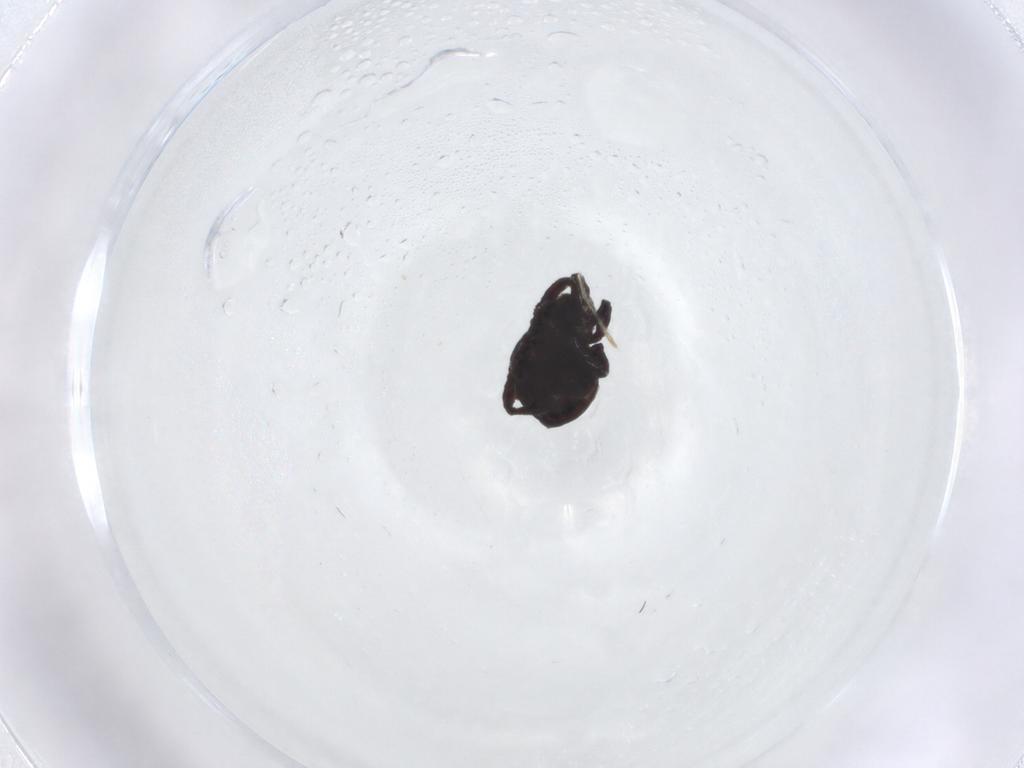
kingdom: Animalia
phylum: Arthropoda
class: Arachnida
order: Trombidiformes
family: Erythraeidae
